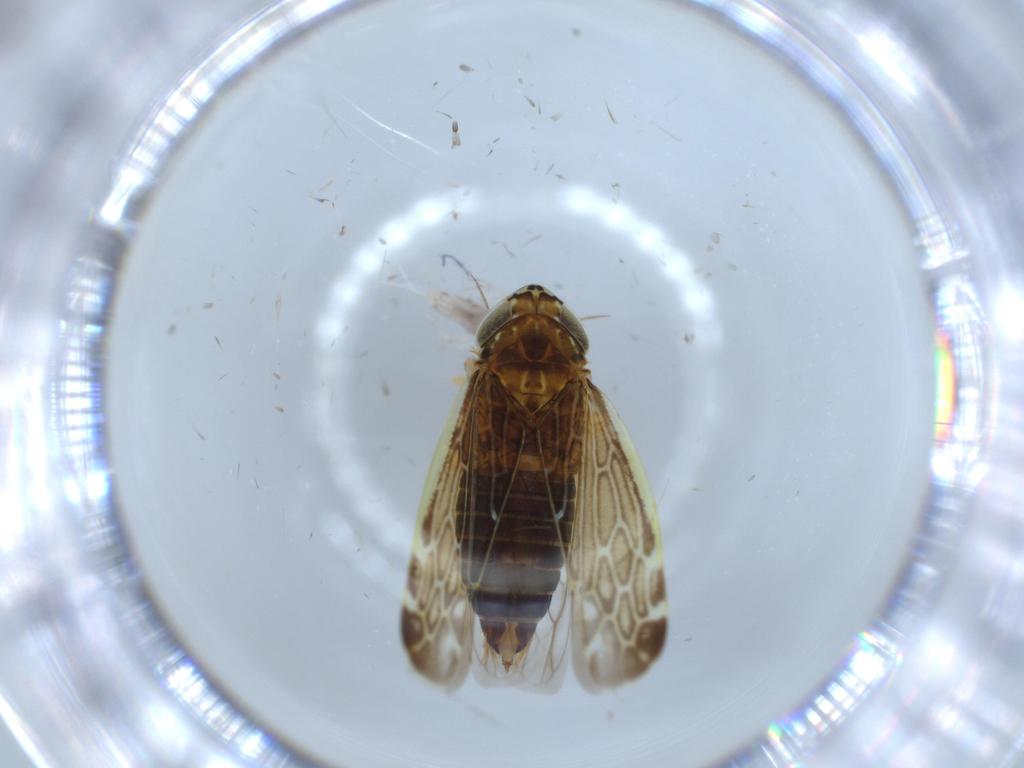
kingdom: Animalia
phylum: Arthropoda
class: Insecta
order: Hemiptera
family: Cicadellidae
